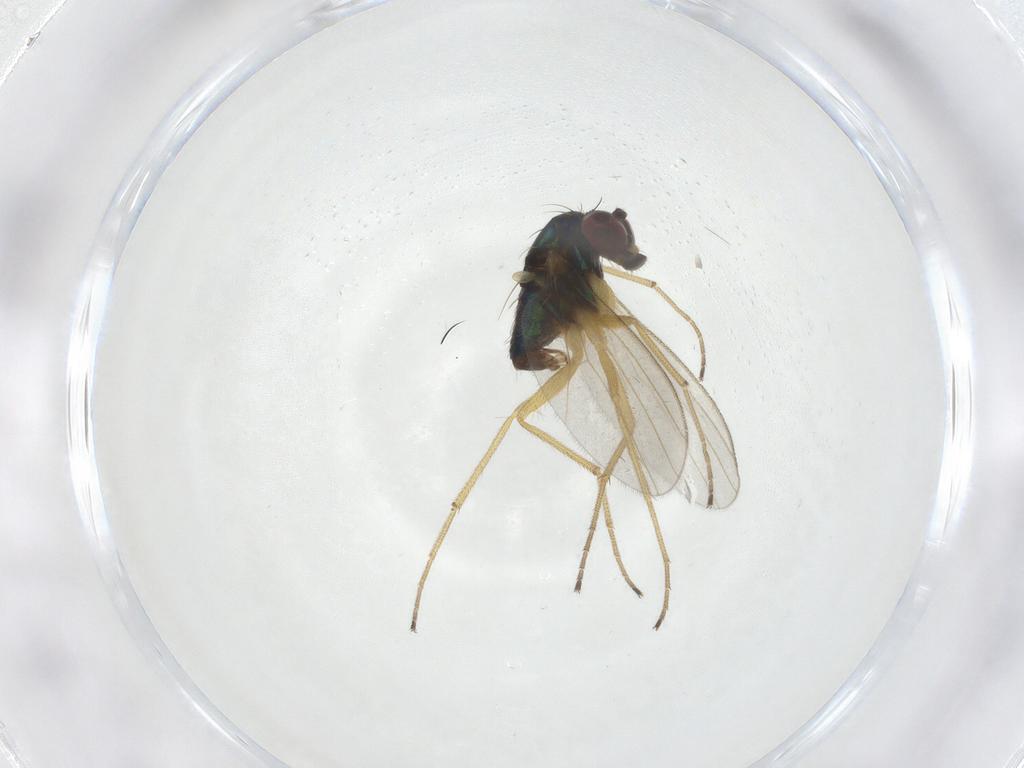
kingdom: Animalia
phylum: Arthropoda
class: Insecta
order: Diptera
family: Dolichopodidae
